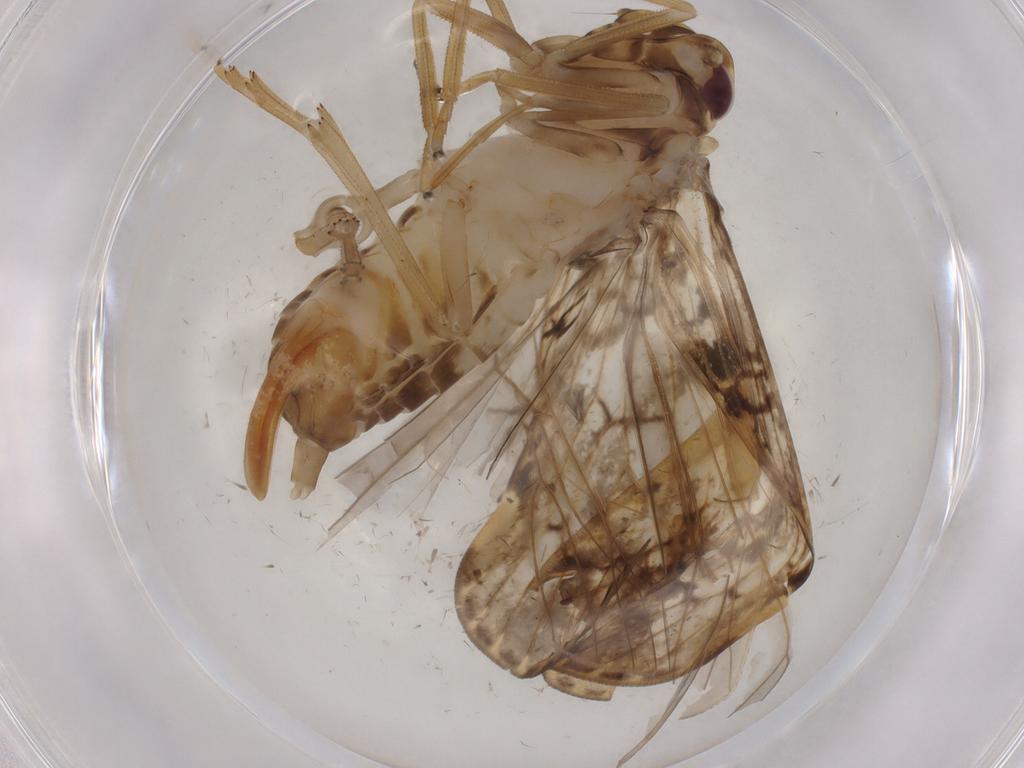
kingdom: Animalia
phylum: Arthropoda
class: Insecta
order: Hemiptera
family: Cixiidae
